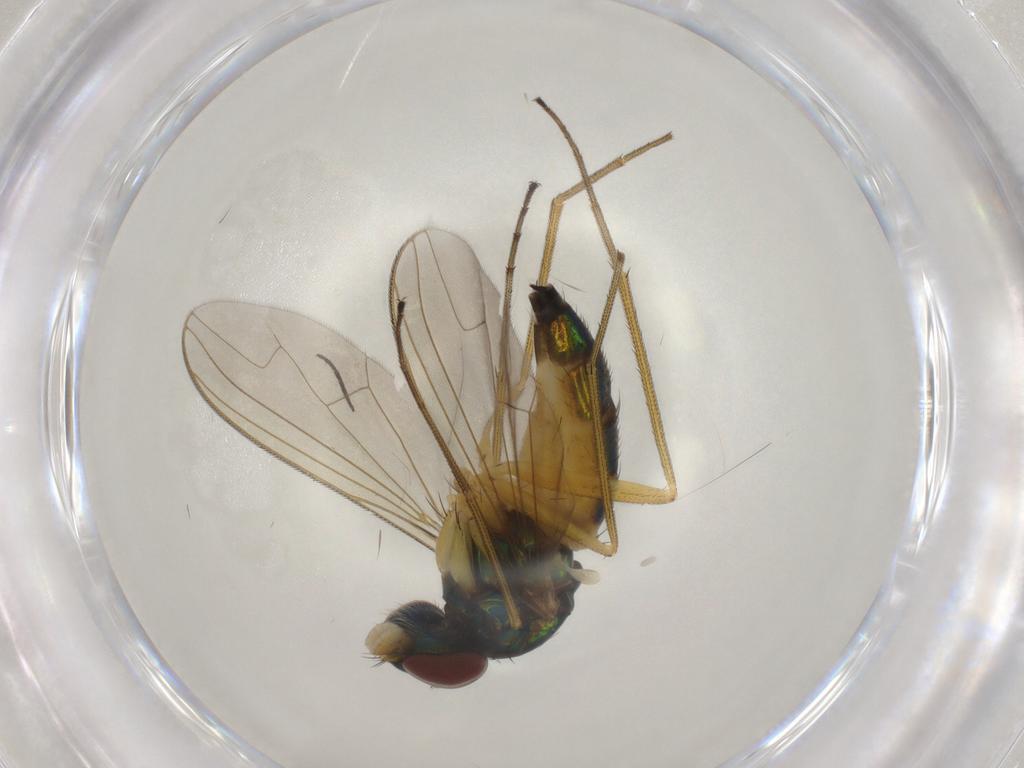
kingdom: Animalia
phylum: Arthropoda
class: Insecta
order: Diptera
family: Dolichopodidae
